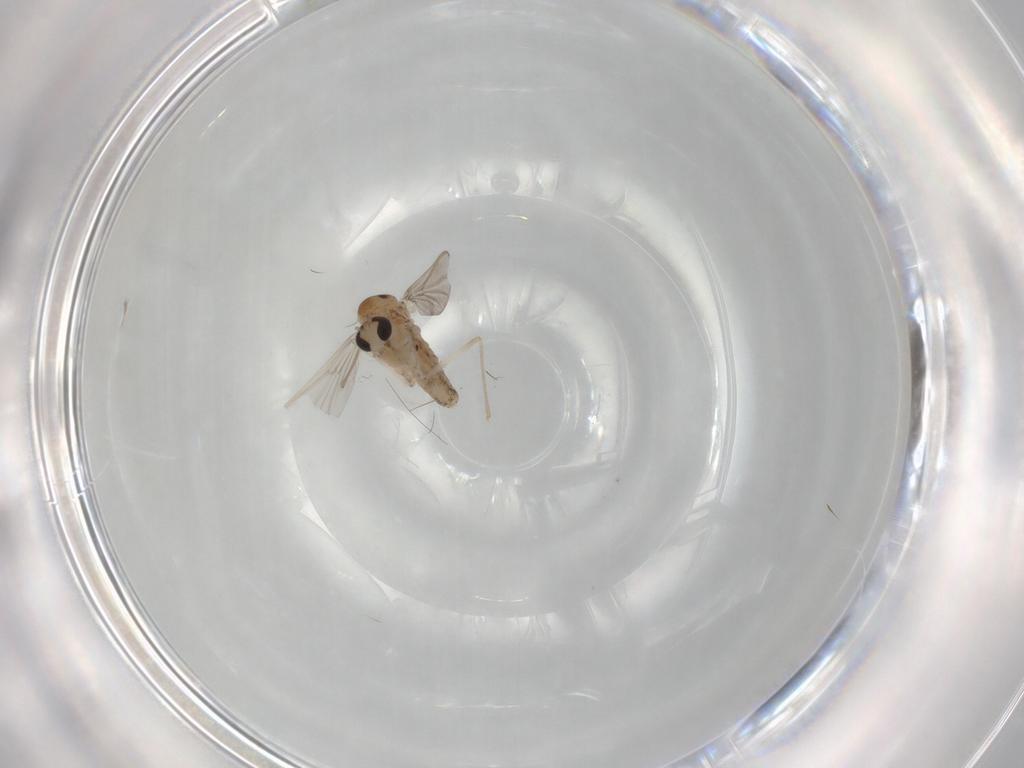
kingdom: Animalia
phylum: Arthropoda
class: Insecta
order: Diptera
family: Chironomidae
